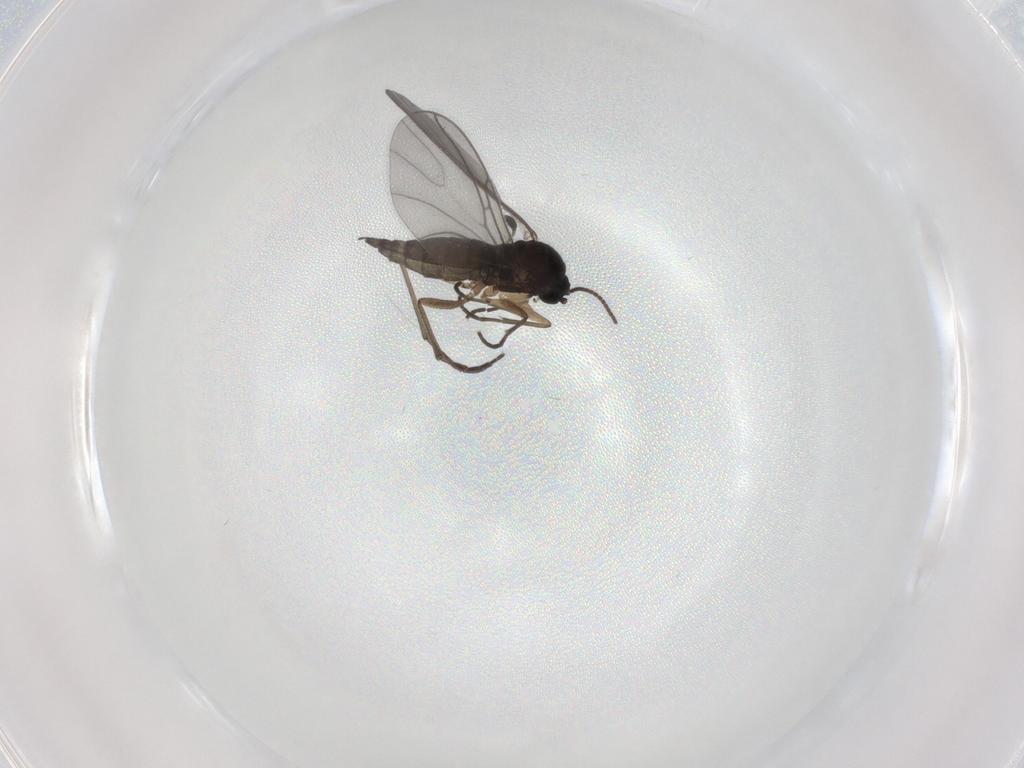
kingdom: Animalia
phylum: Arthropoda
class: Insecta
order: Diptera
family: Sciaridae
